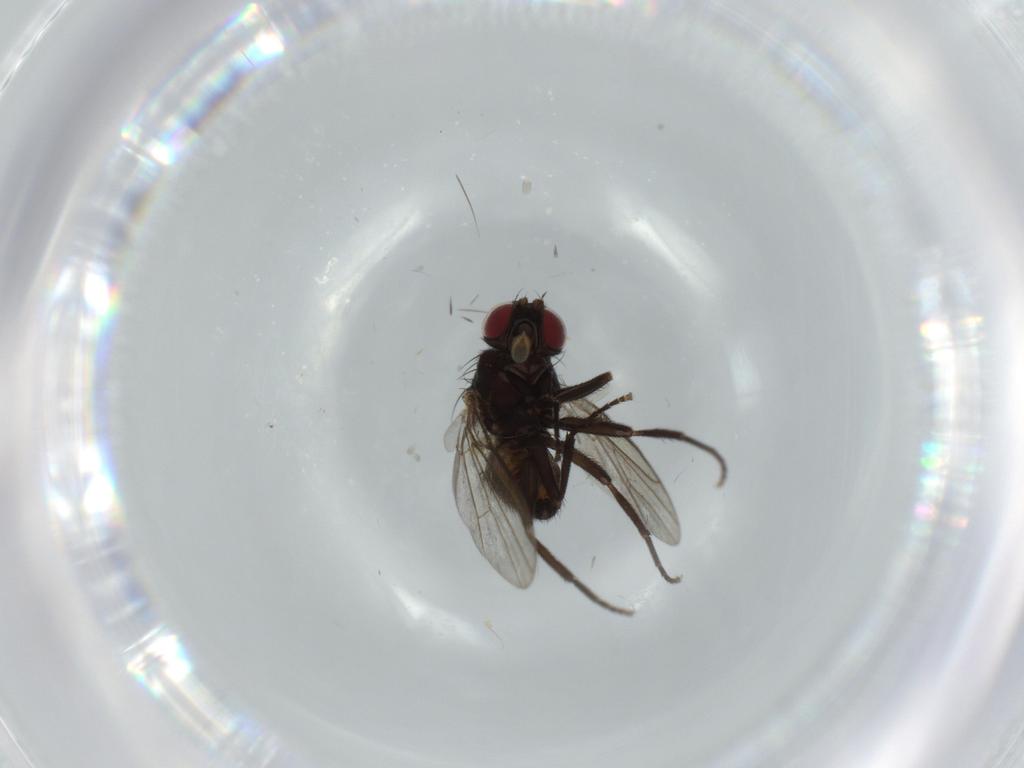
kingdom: Animalia
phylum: Arthropoda
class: Insecta
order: Diptera
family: Agromyzidae
